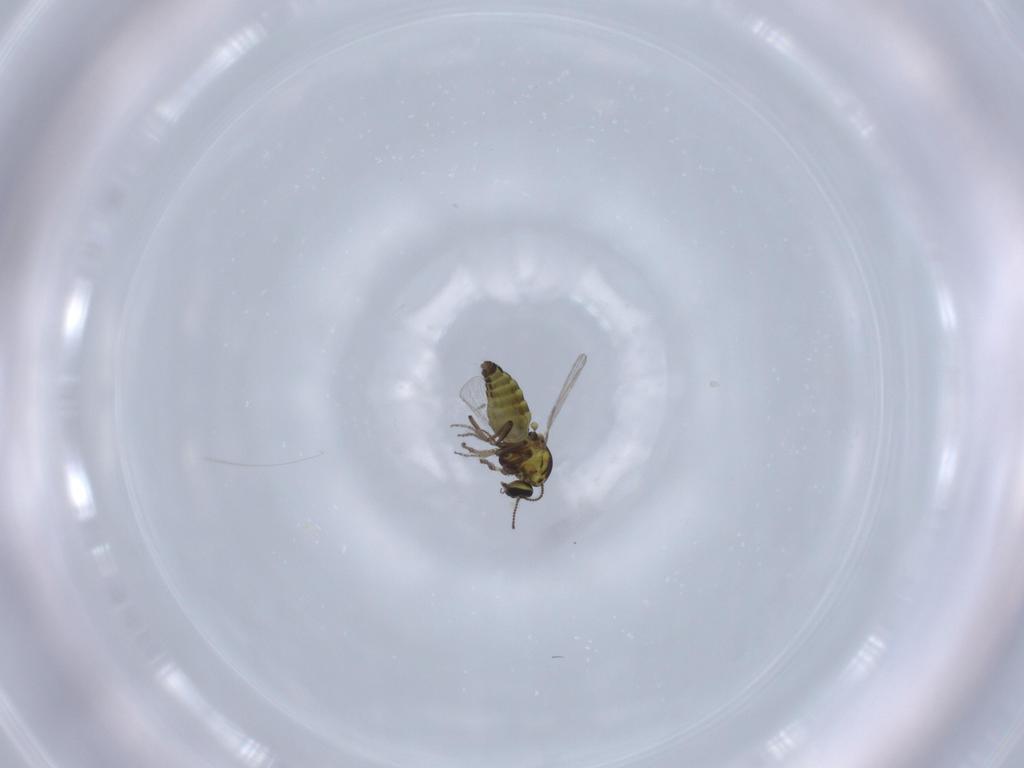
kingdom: Animalia
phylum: Arthropoda
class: Insecta
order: Diptera
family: Ceratopogonidae
